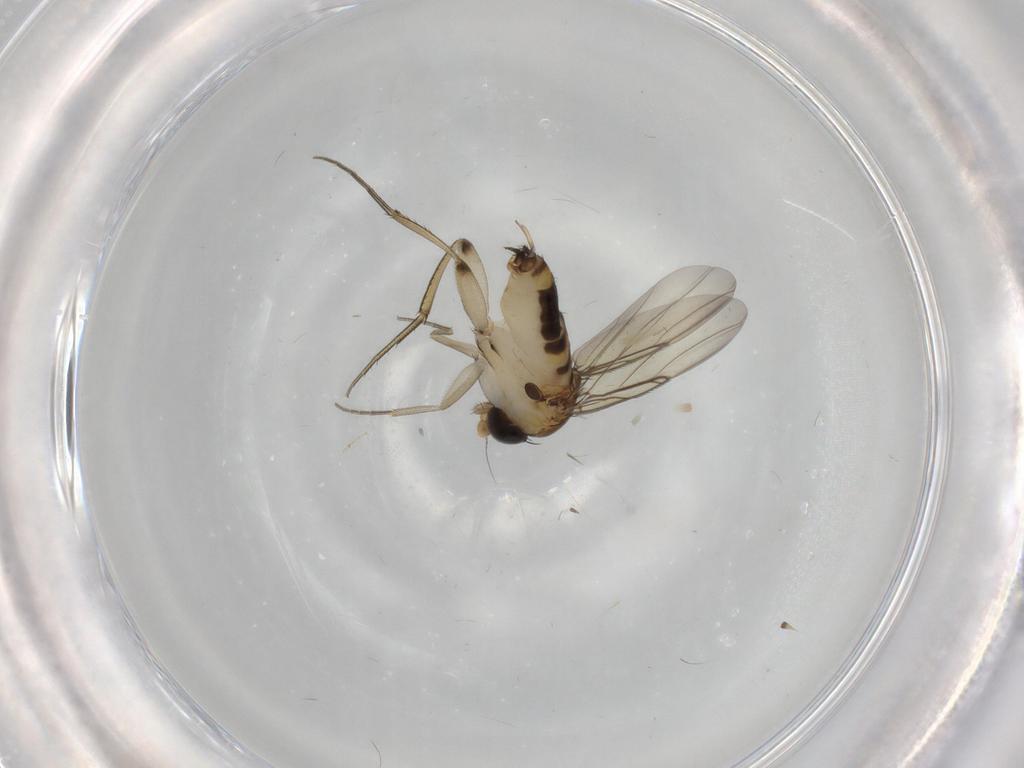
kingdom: Animalia
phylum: Arthropoda
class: Insecta
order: Diptera
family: Phoridae
